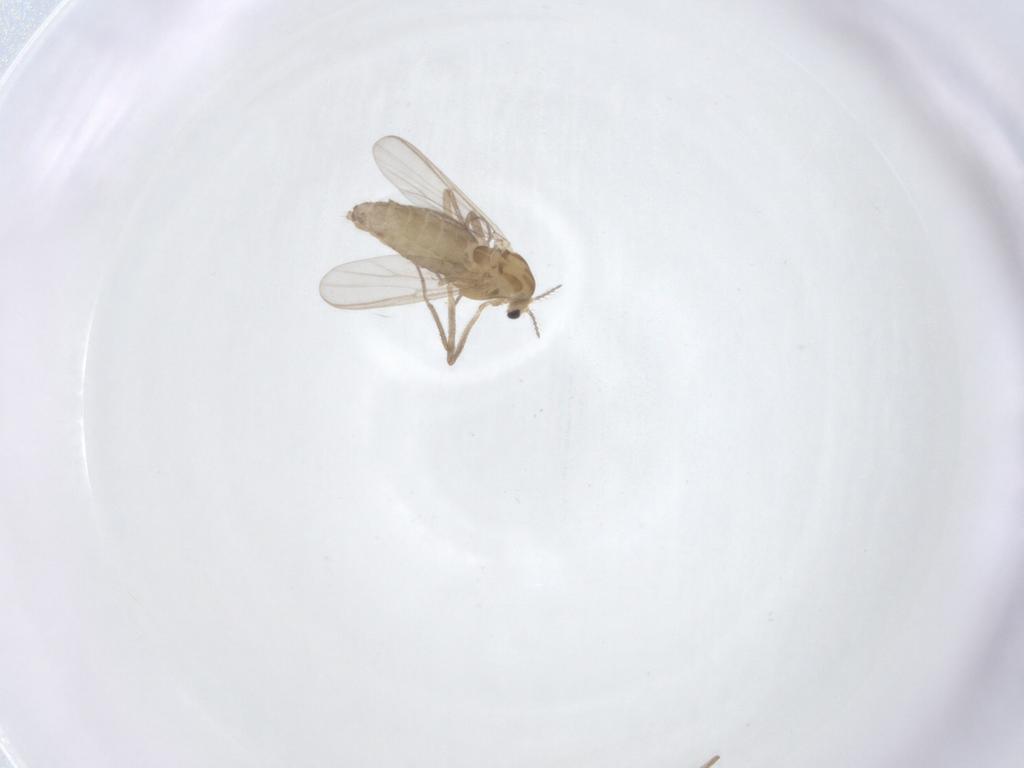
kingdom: Animalia
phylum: Arthropoda
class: Insecta
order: Diptera
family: Chironomidae
